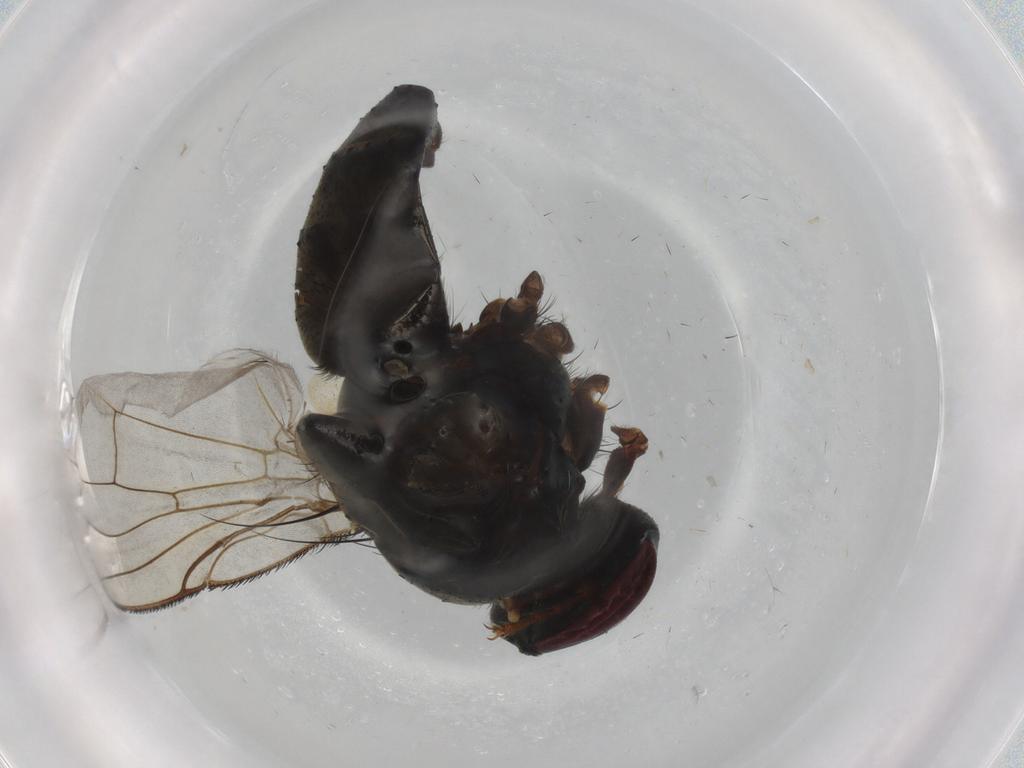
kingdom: Animalia
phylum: Arthropoda
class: Insecta
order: Diptera
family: Muscidae
